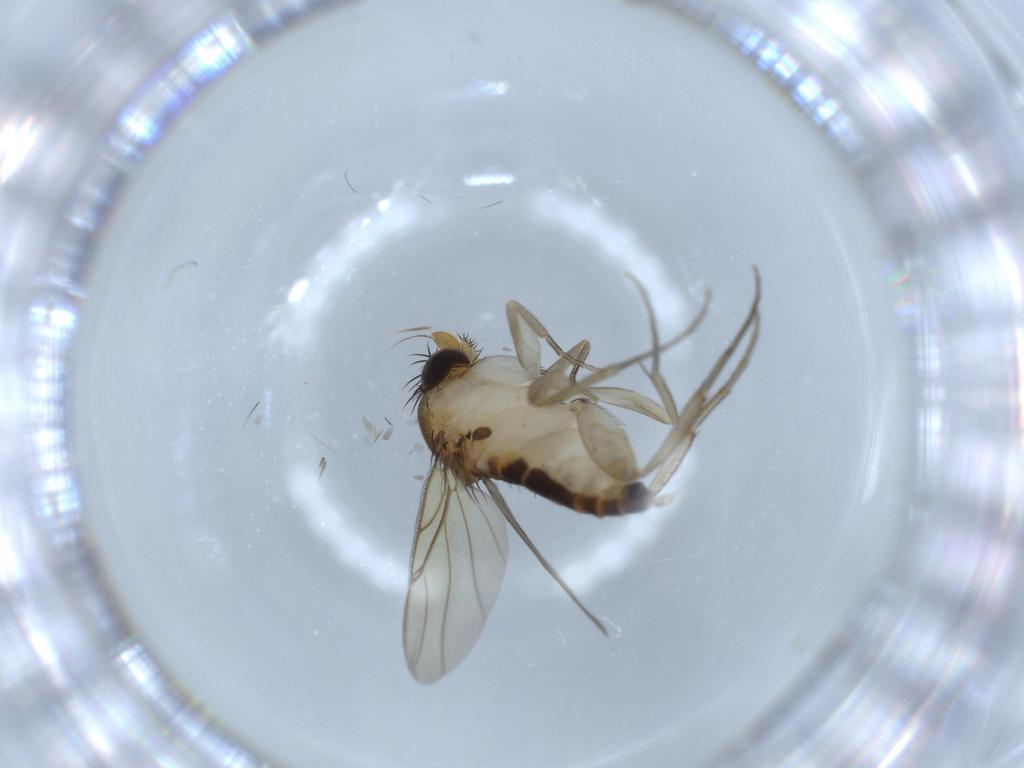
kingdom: Animalia
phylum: Arthropoda
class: Insecta
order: Diptera
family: Phoridae
